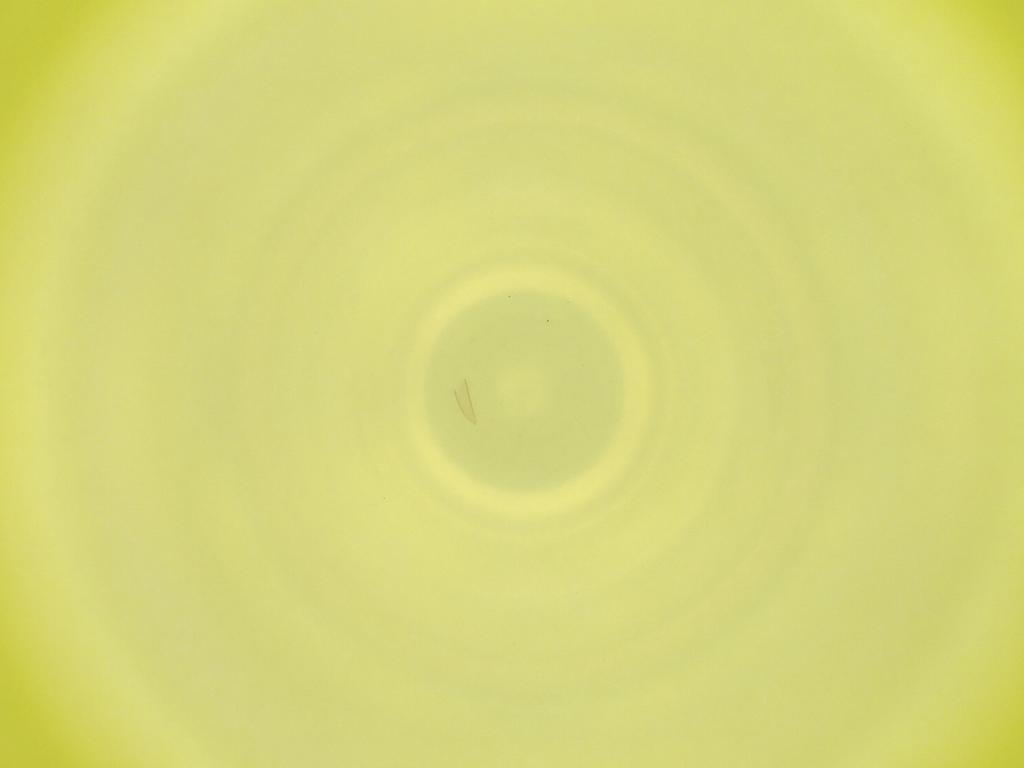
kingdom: Animalia
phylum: Arthropoda
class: Insecta
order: Diptera
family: Cecidomyiidae
